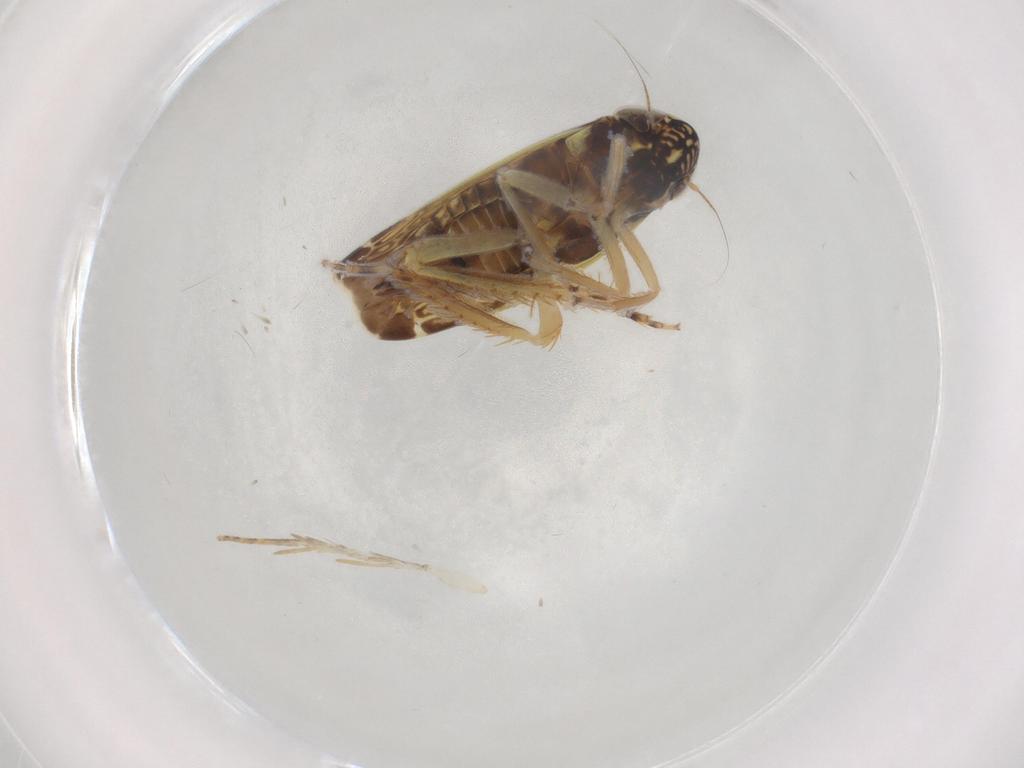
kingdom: Animalia
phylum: Arthropoda
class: Insecta
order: Hemiptera
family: Cicadellidae
